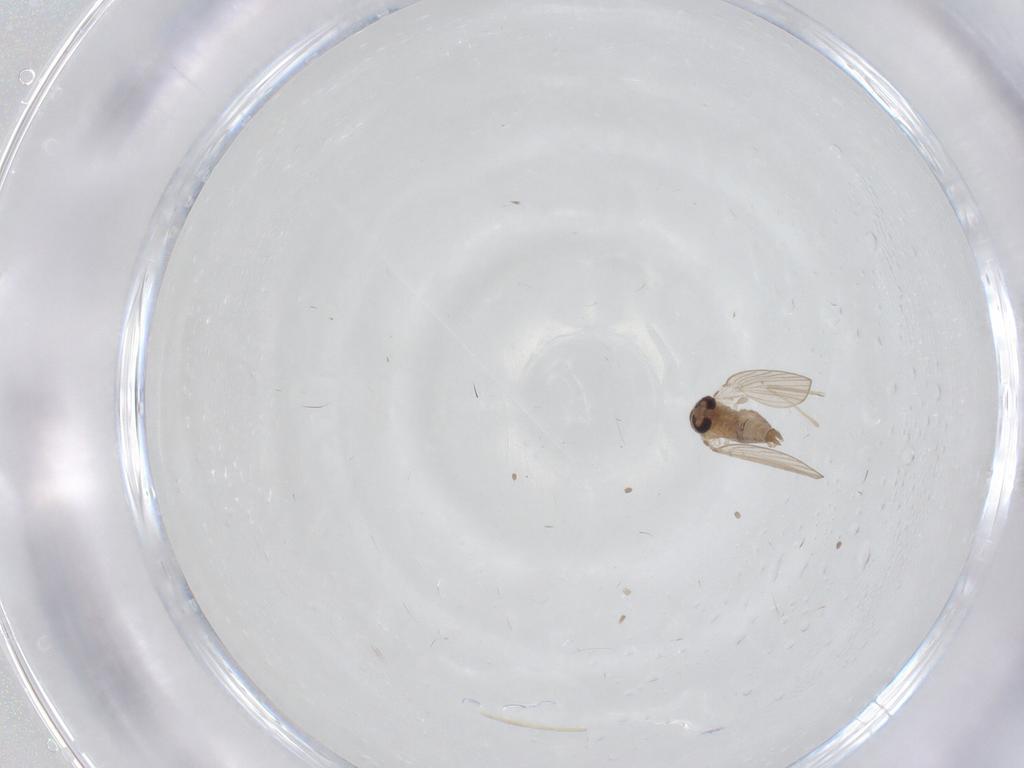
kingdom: Animalia
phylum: Arthropoda
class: Insecta
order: Diptera
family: Psychodidae
